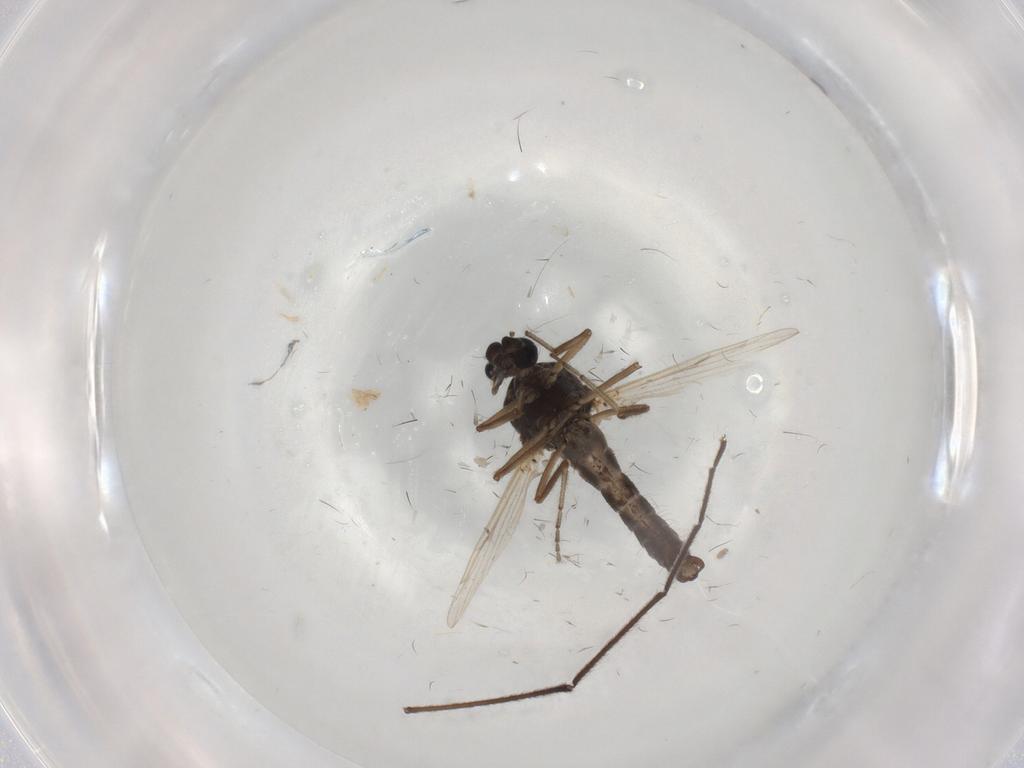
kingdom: Animalia
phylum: Arthropoda
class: Insecta
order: Diptera
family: Ceratopogonidae
